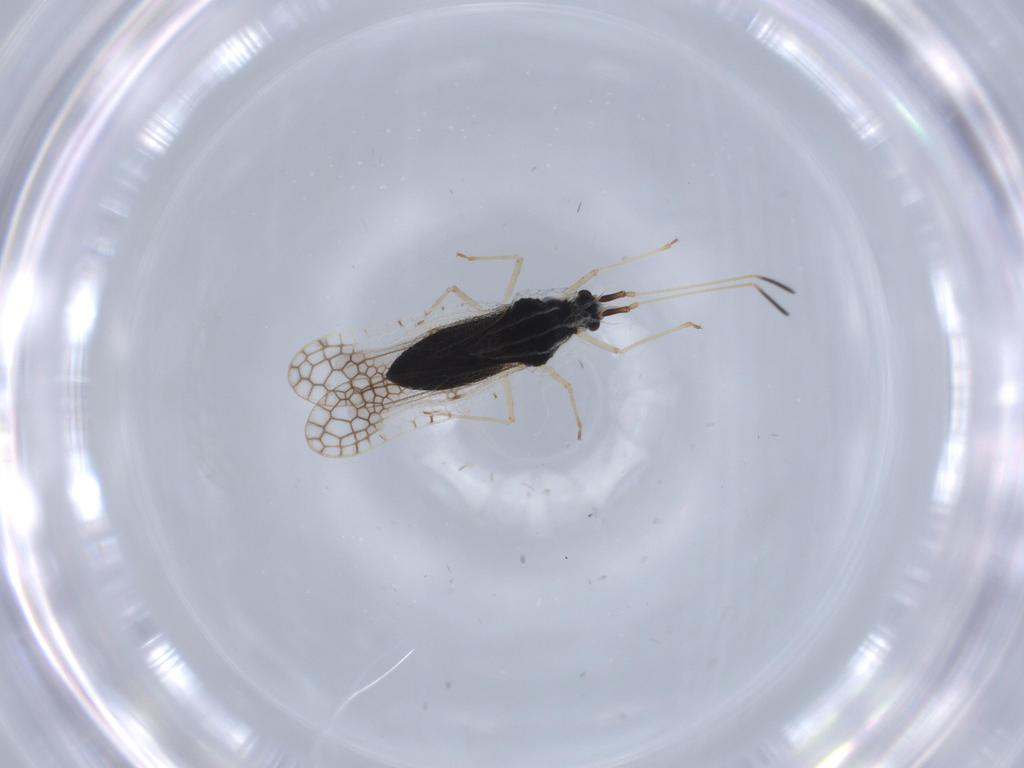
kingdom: Animalia
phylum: Arthropoda
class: Insecta
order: Hemiptera
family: Tingidae
